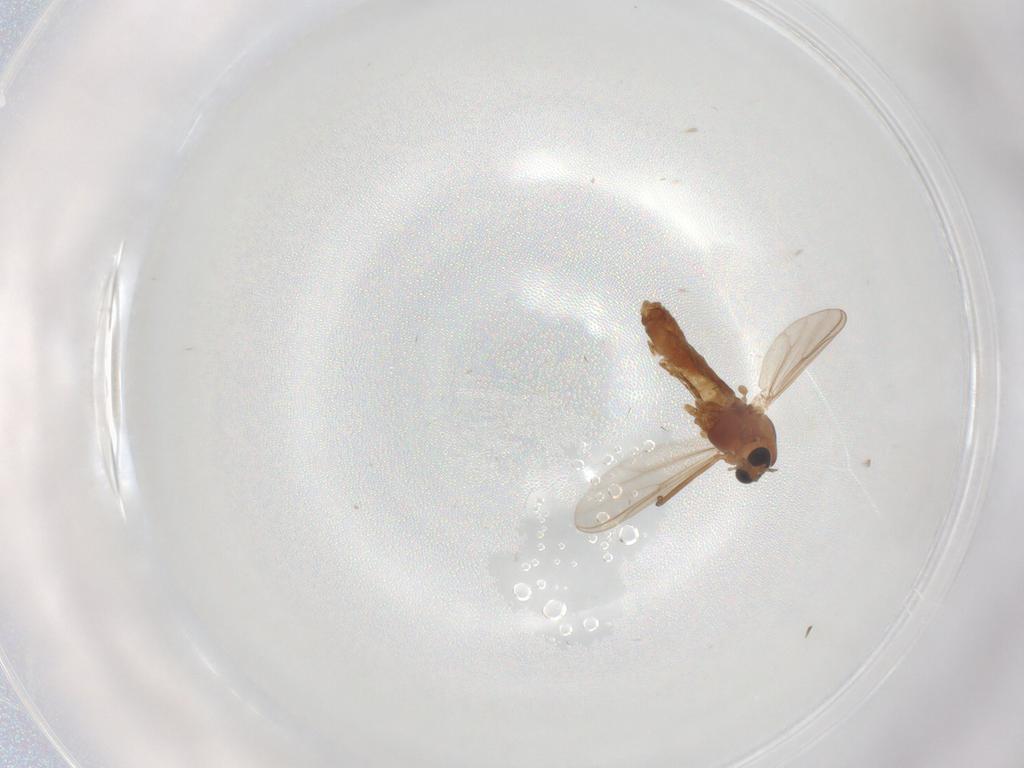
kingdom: Animalia
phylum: Arthropoda
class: Insecta
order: Diptera
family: Chironomidae
